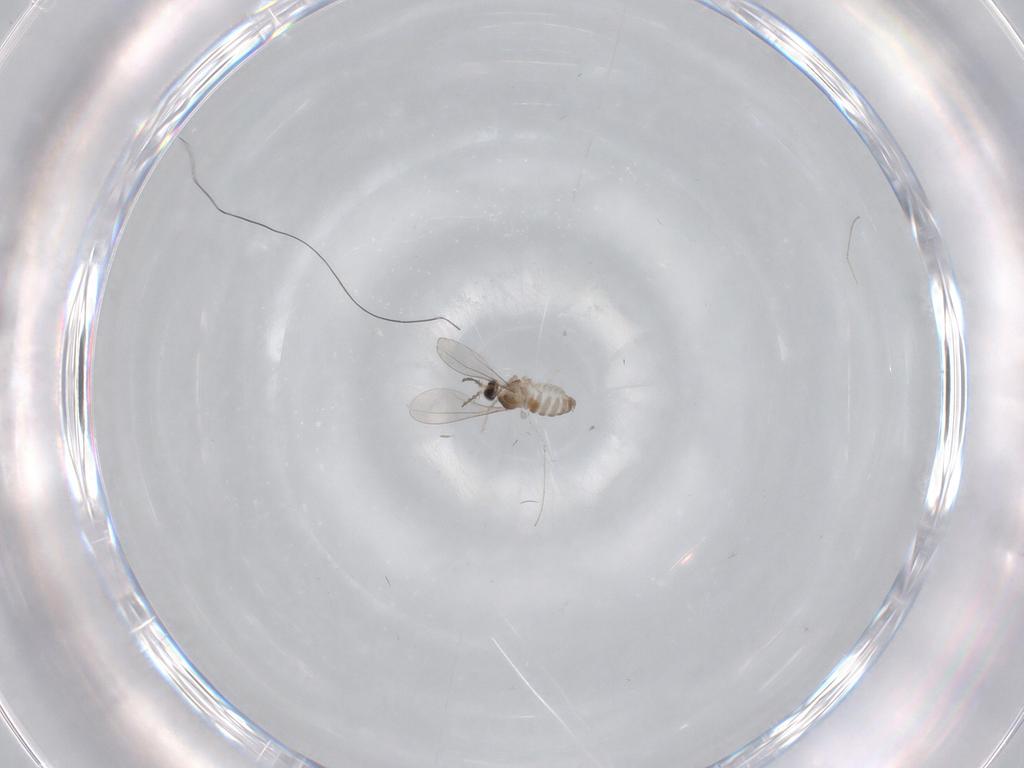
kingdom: Animalia
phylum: Arthropoda
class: Insecta
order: Diptera
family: Cecidomyiidae
